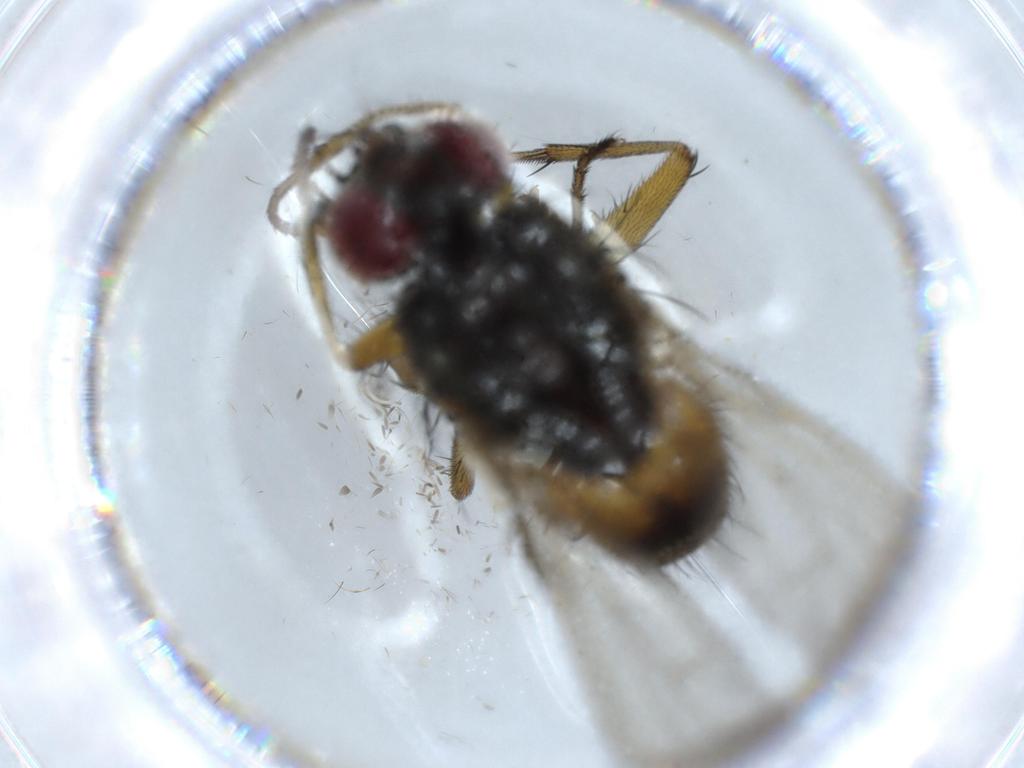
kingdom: Animalia
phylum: Arthropoda
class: Insecta
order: Diptera
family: Muscidae
